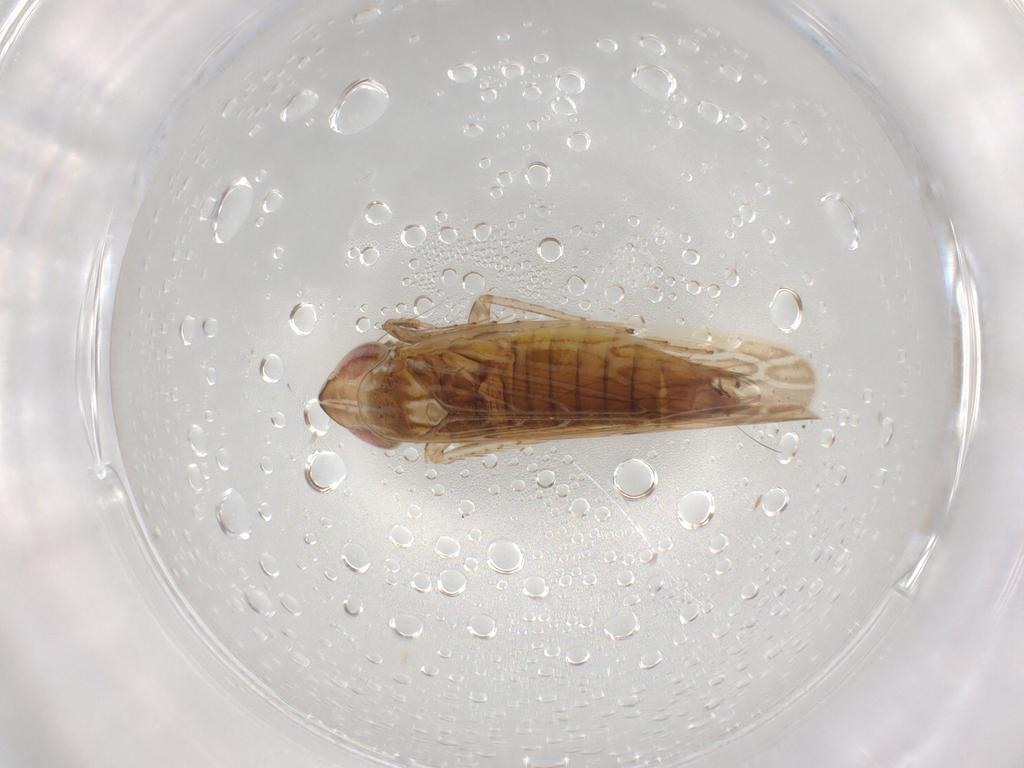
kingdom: Animalia
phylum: Arthropoda
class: Insecta
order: Hemiptera
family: Cicadellidae
